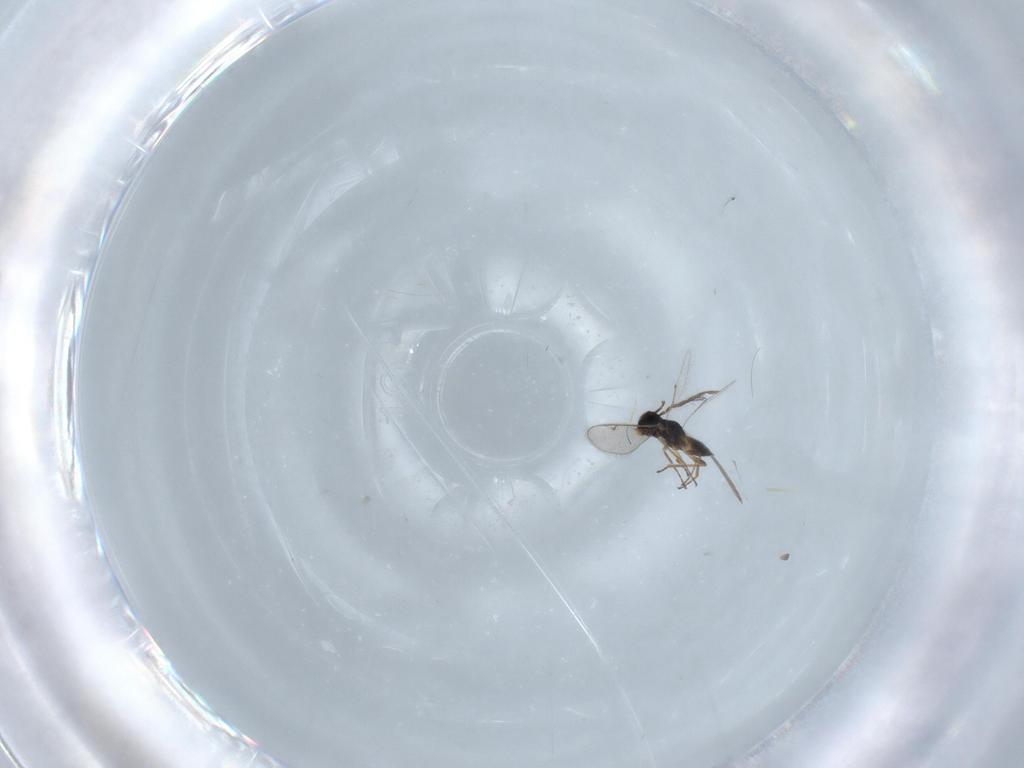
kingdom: Animalia
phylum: Arthropoda
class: Insecta
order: Hymenoptera
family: Eulophidae
